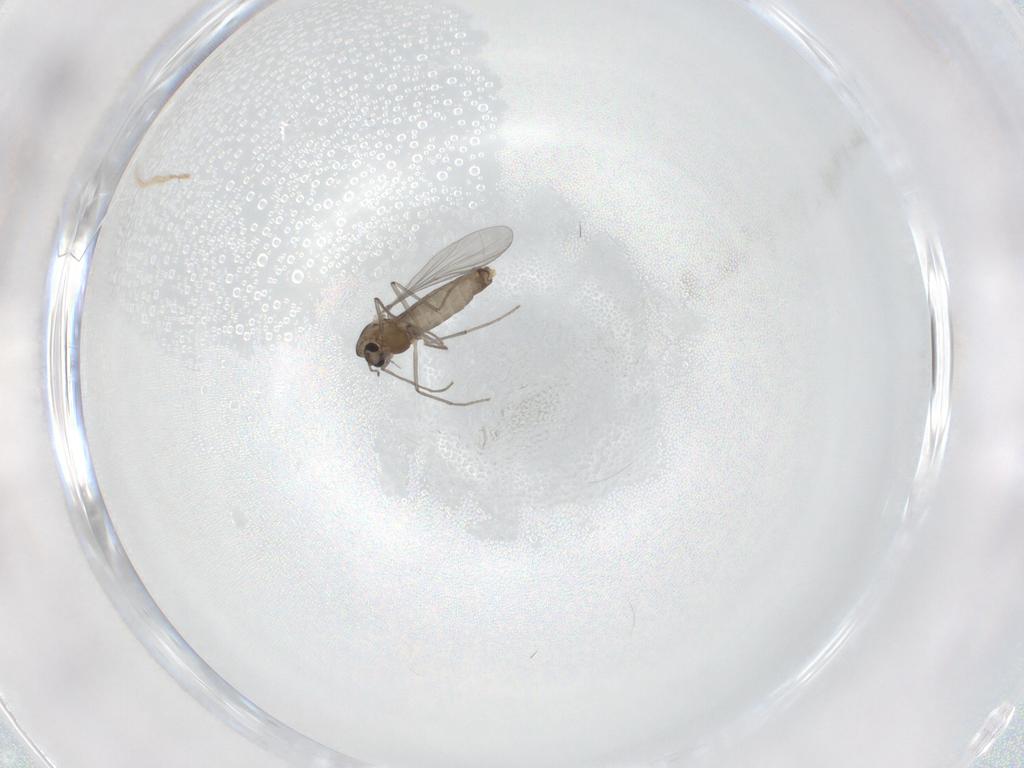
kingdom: Animalia
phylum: Arthropoda
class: Insecta
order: Diptera
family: Chironomidae
